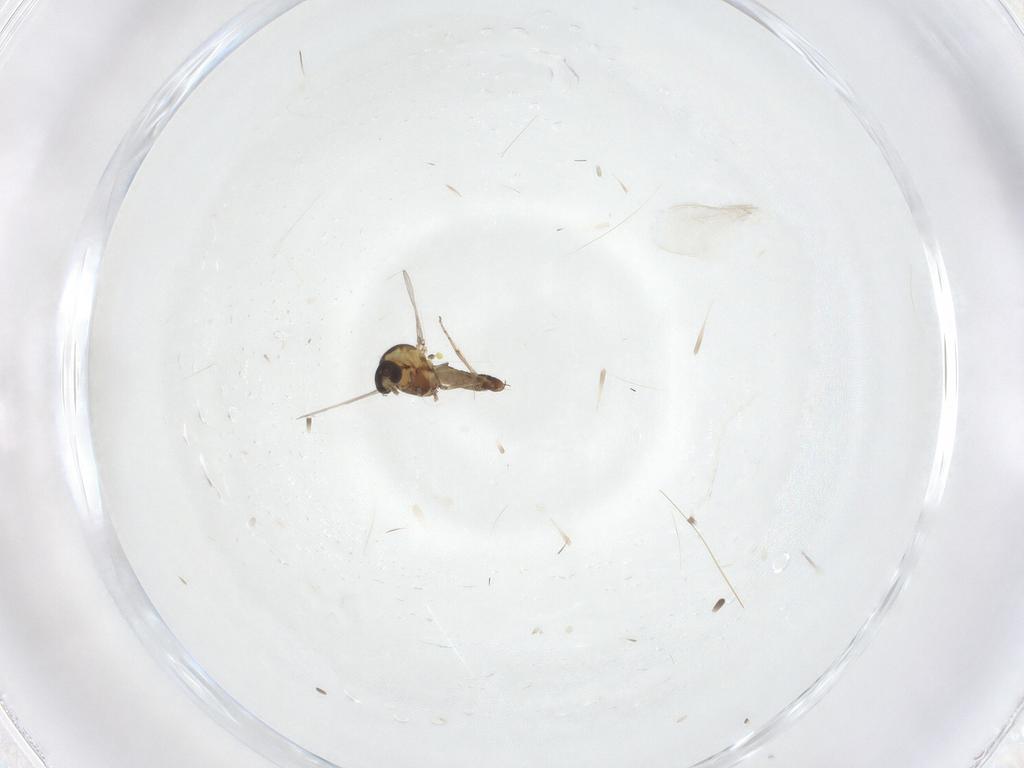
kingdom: Animalia
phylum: Arthropoda
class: Insecta
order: Diptera
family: Ceratopogonidae
